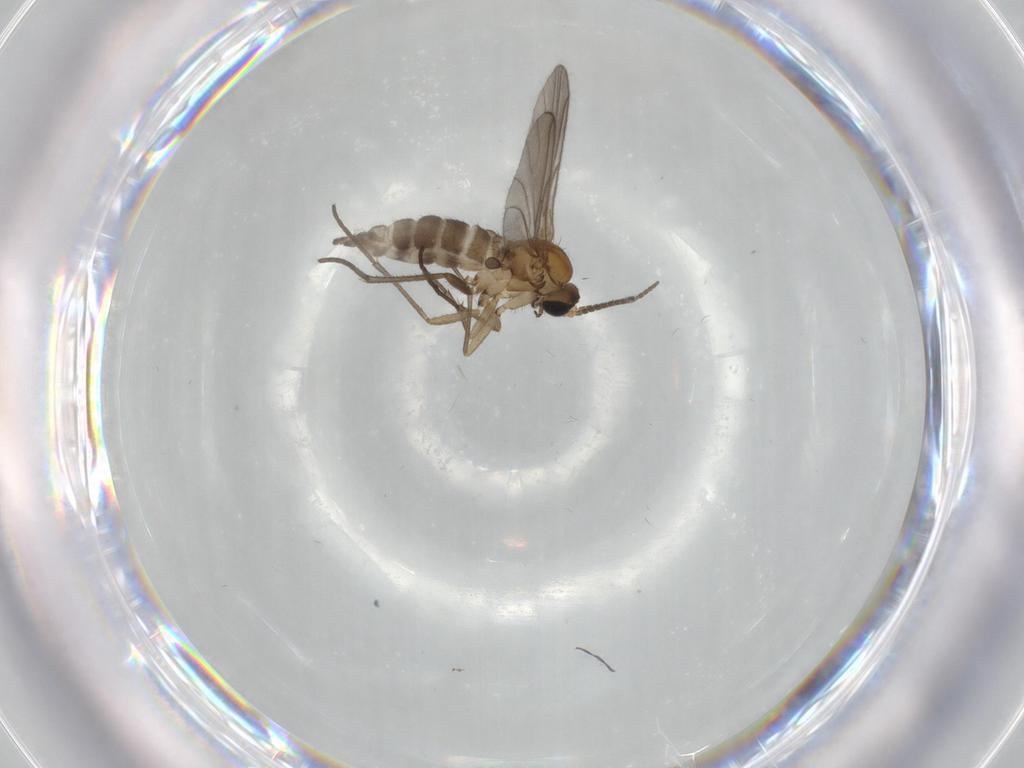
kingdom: Animalia
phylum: Arthropoda
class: Insecta
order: Diptera
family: Sciaridae
